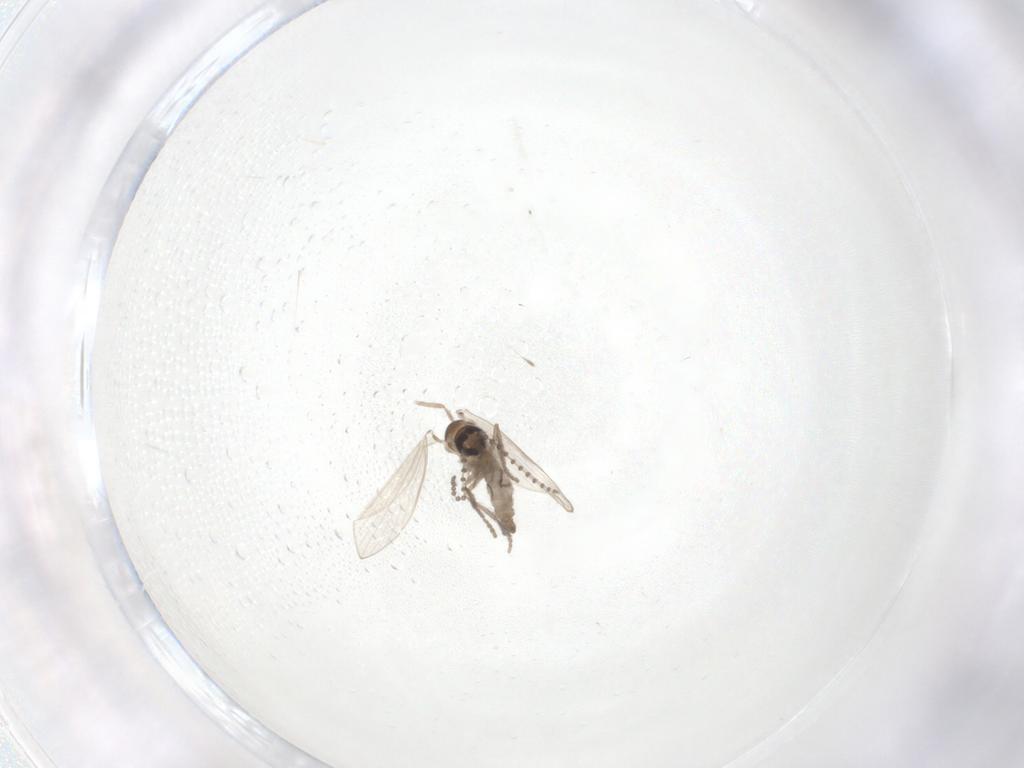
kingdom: Animalia
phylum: Arthropoda
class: Insecta
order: Diptera
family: Psychodidae
